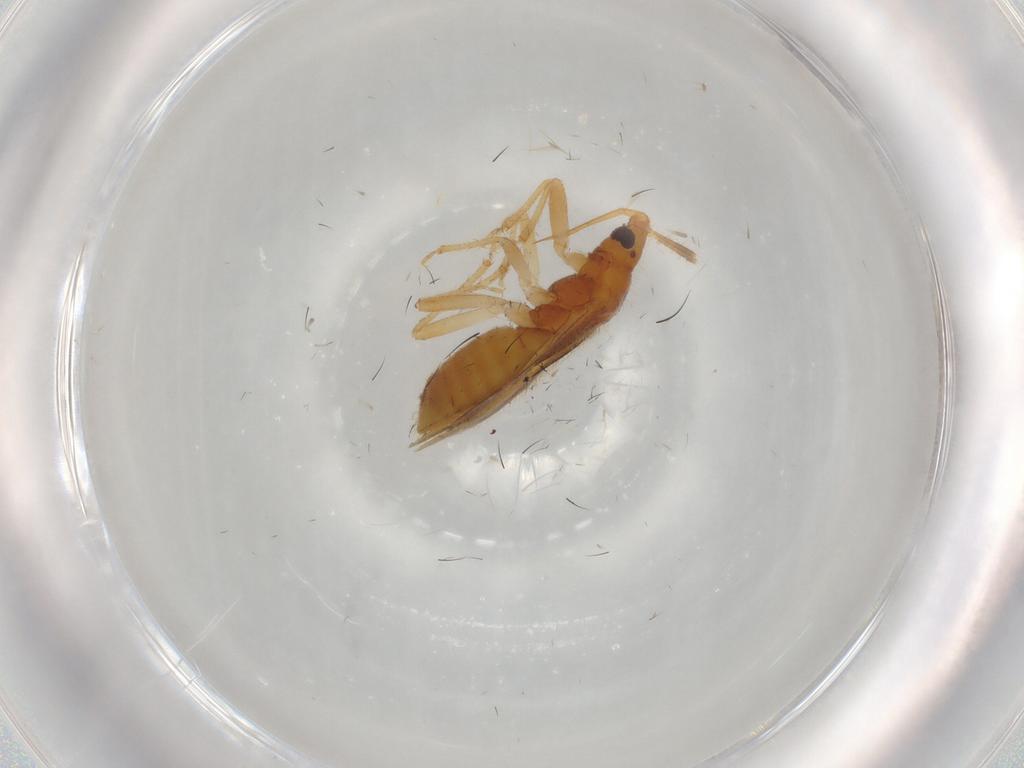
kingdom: Animalia
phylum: Arthropoda
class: Insecta
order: Hemiptera
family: Lasiochilidae
